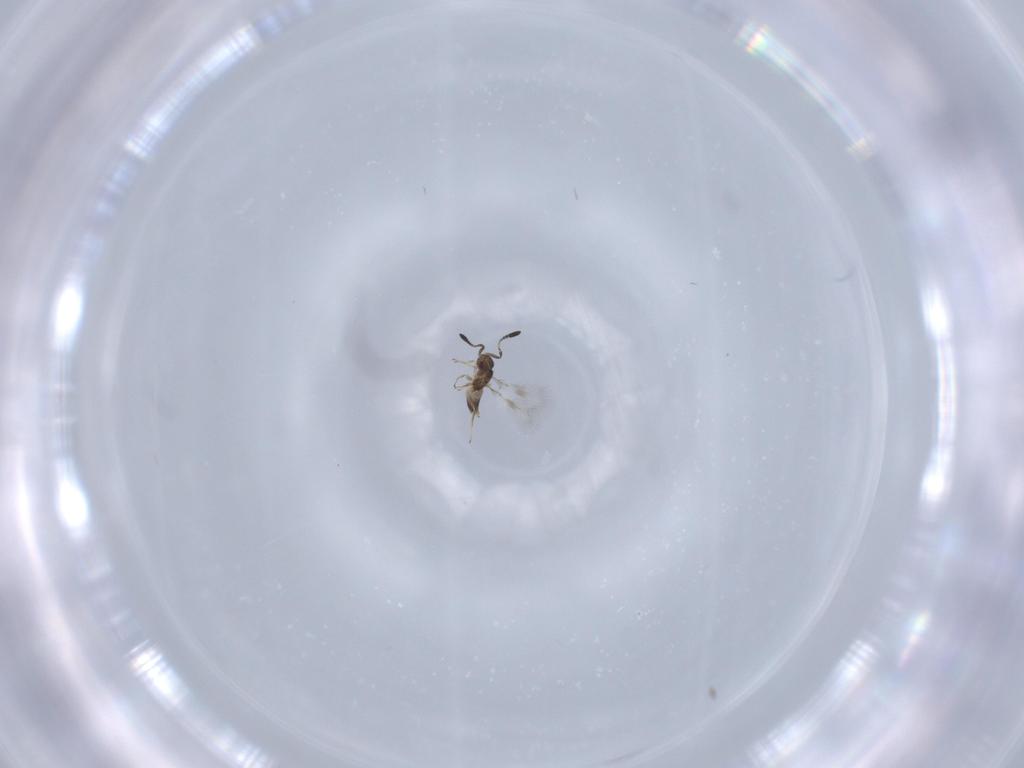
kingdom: Animalia
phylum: Arthropoda
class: Insecta
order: Hymenoptera
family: Mymaridae
